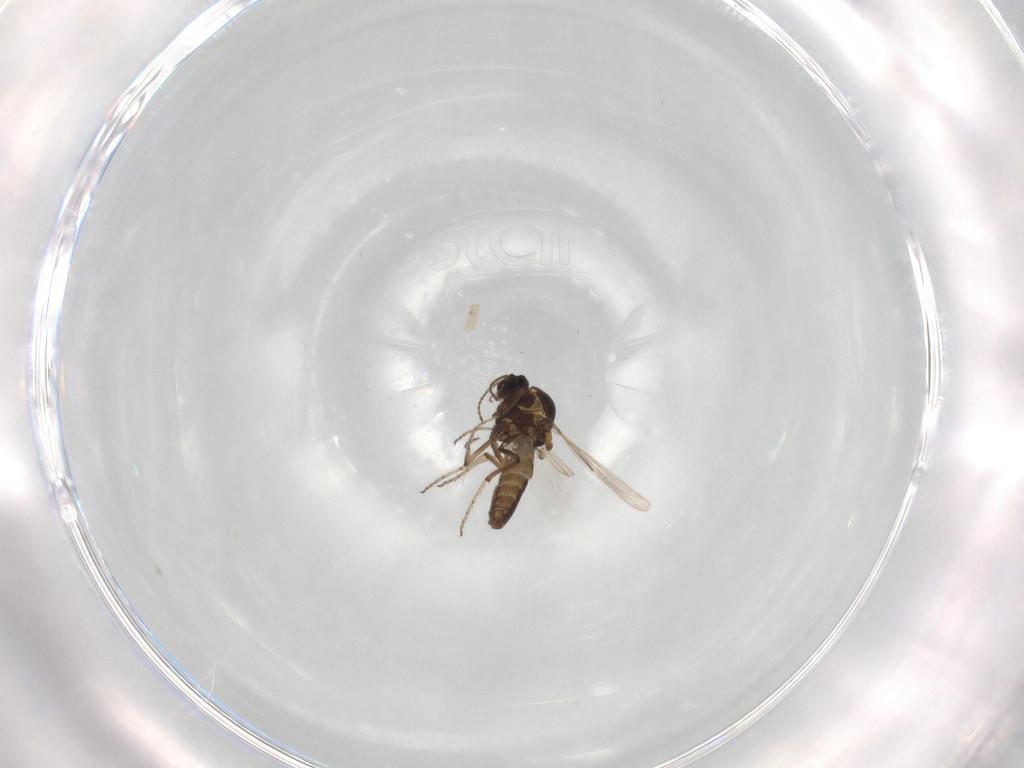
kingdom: Animalia
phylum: Arthropoda
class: Insecta
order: Diptera
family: Chironomidae
